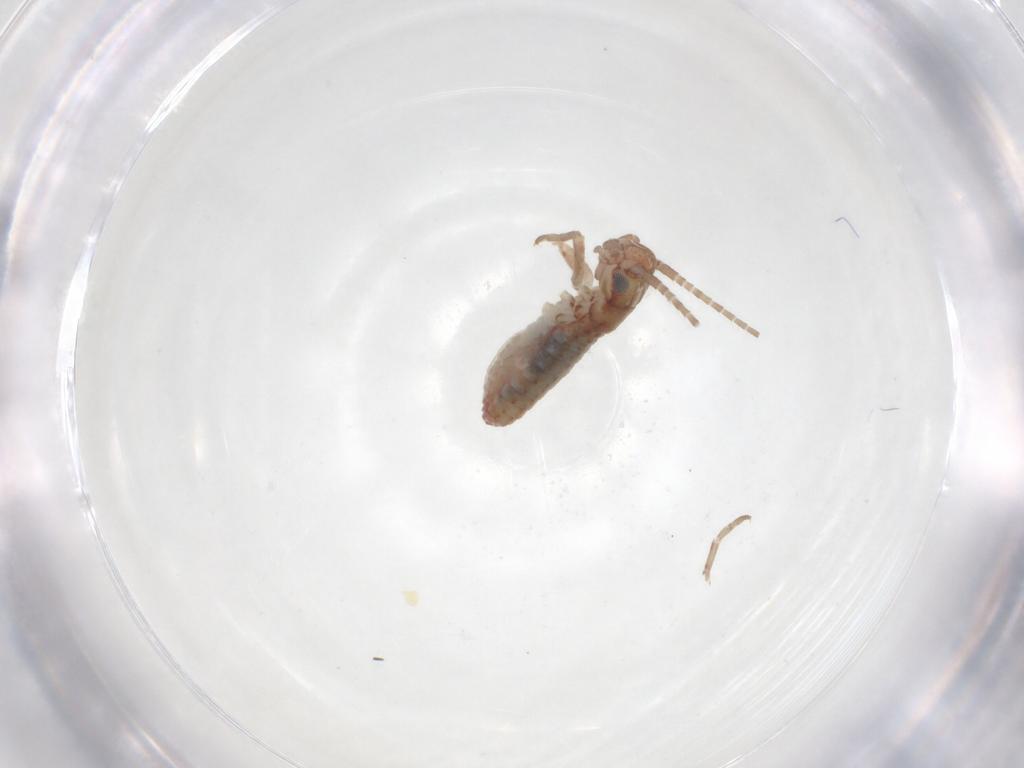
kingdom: Animalia
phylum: Arthropoda
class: Insecta
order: Orthoptera
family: Mogoplistidae
